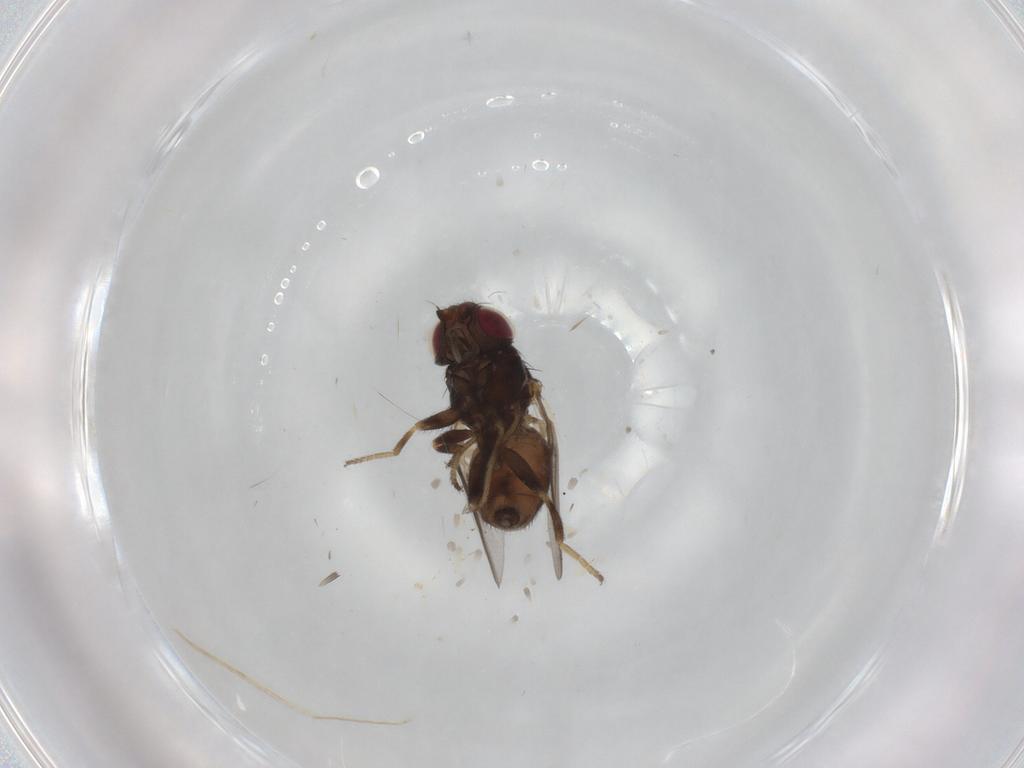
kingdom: Animalia
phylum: Arthropoda
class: Insecta
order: Diptera
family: Chloropidae
